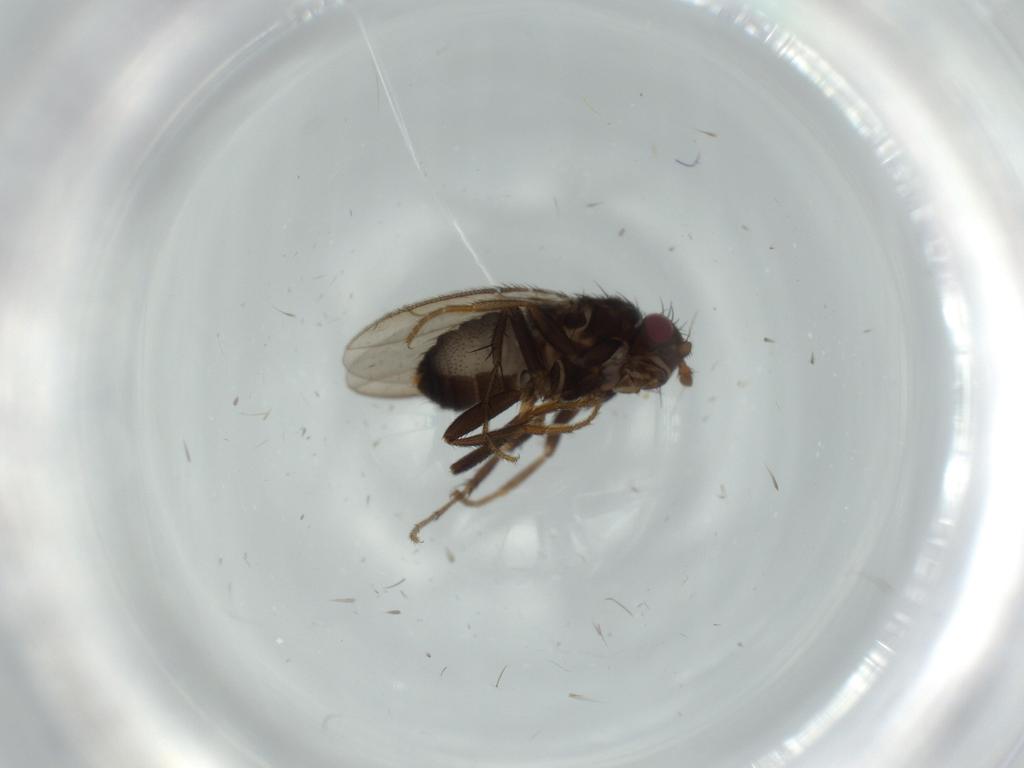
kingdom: Animalia
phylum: Arthropoda
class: Insecta
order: Diptera
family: Sphaeroceridae
